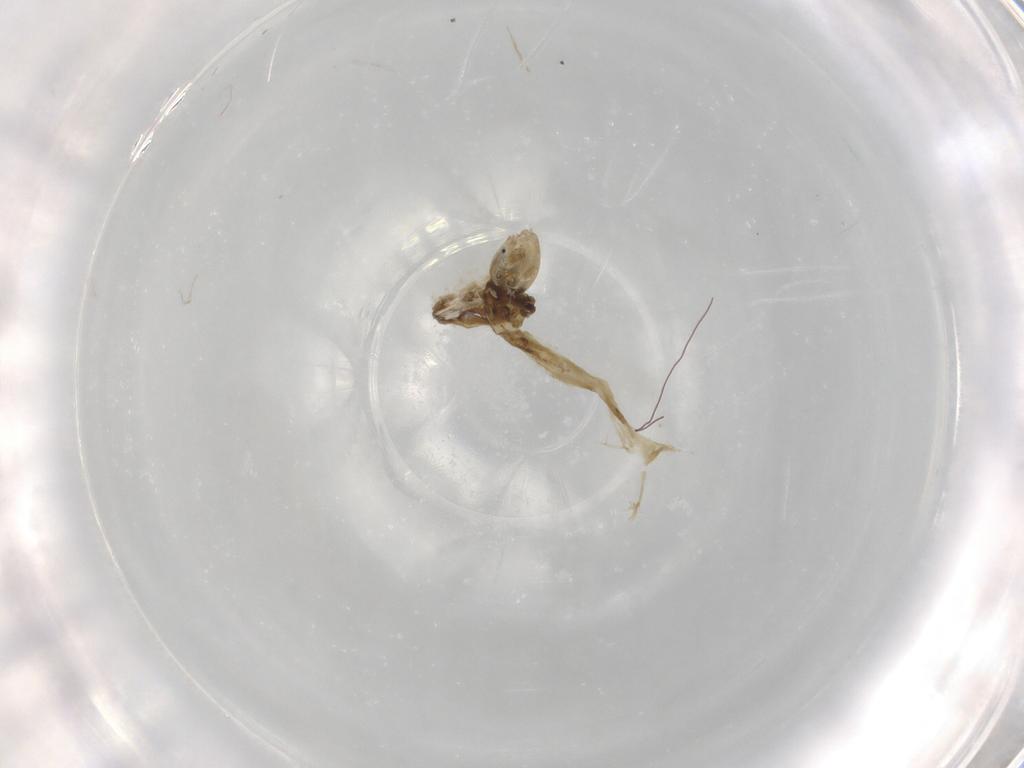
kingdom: Animalia
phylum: Arthropoda
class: Insecta
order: Diptera
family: Chironomidae
